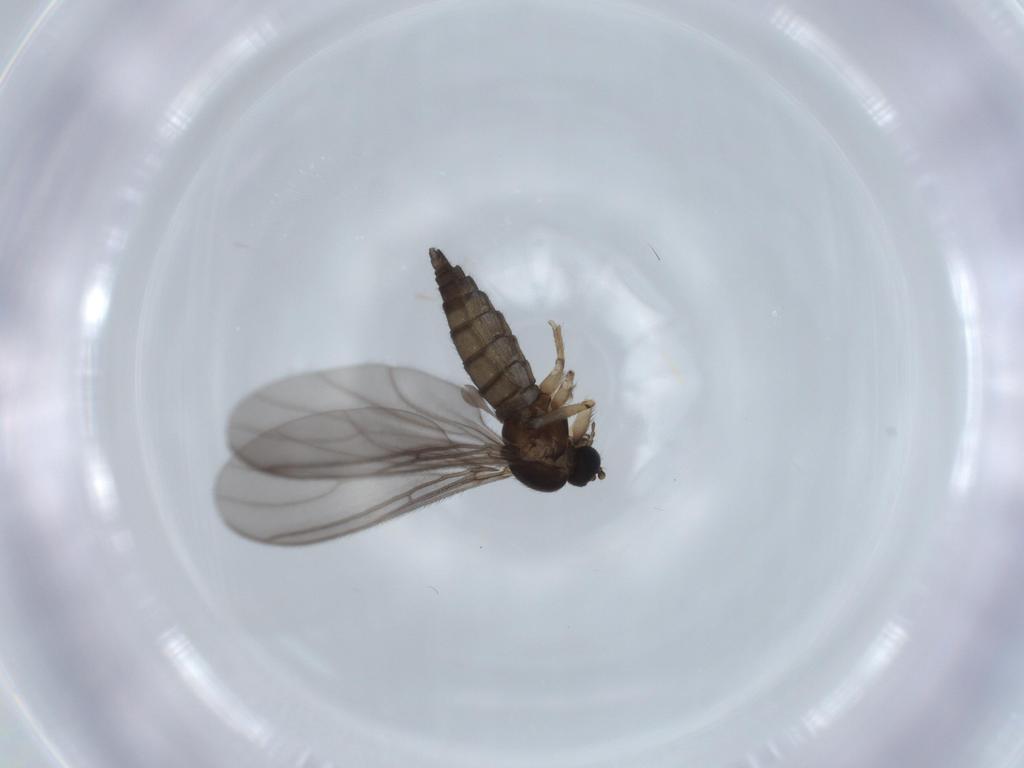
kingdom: Animalia
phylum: Arthropoda
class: Insecta
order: Diptera
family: Sciaridae
